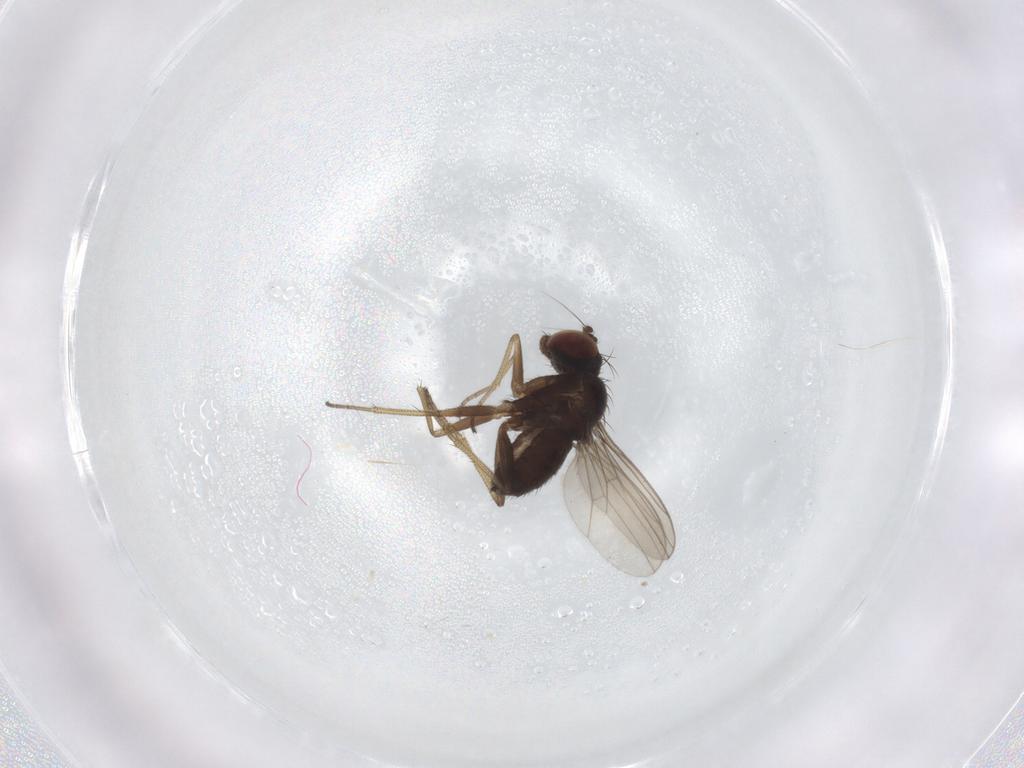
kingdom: Animalia
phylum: Arthropoda
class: Insecta
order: Diptera
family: Dolichopodidae
